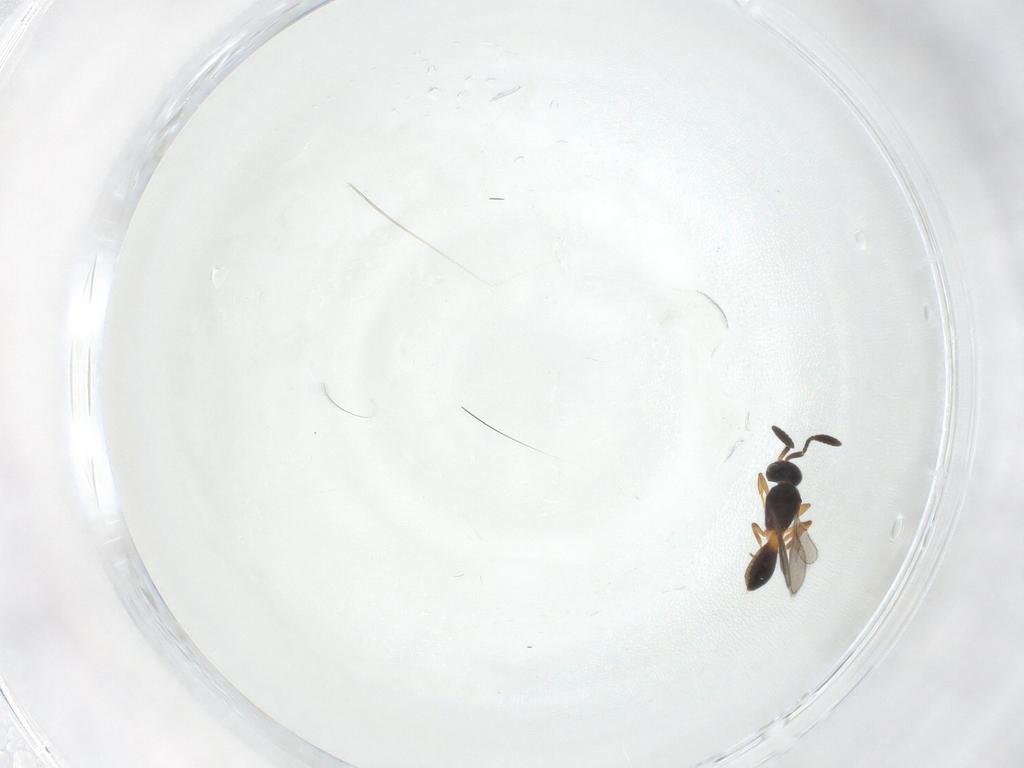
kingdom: Animalia
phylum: Arthropoda
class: Insecta
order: Hymenoptera
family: Scelionidae
